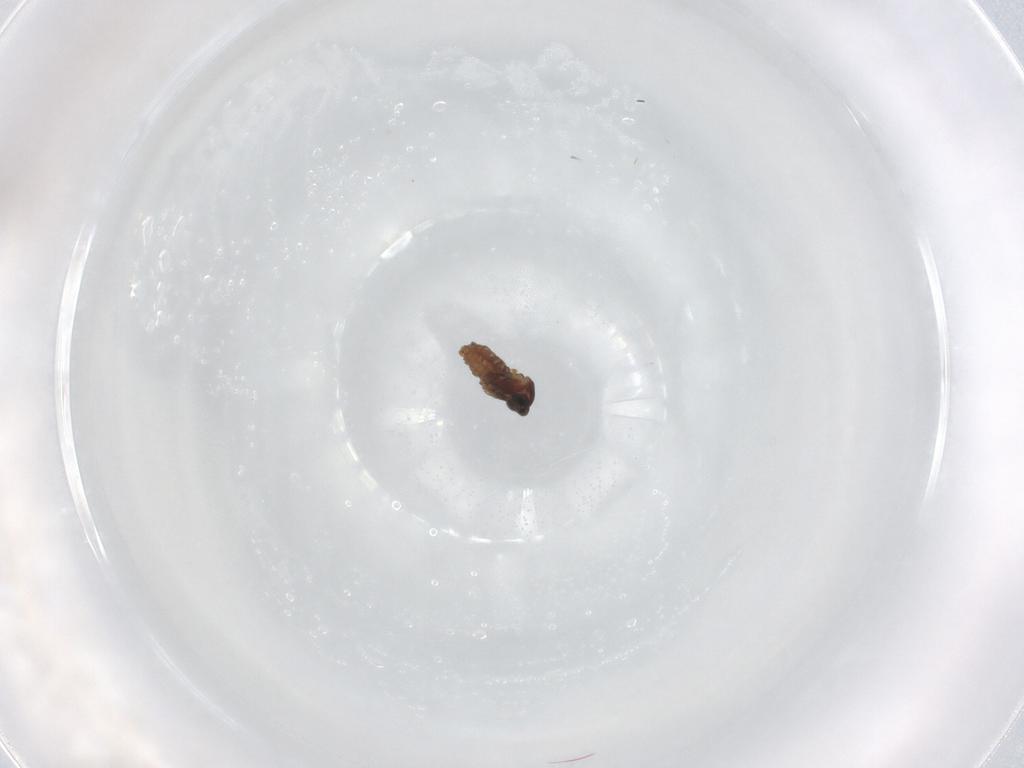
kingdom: Animalia
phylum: Arthropoda
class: Insecta
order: Diptera
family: Cecidomyiidae
